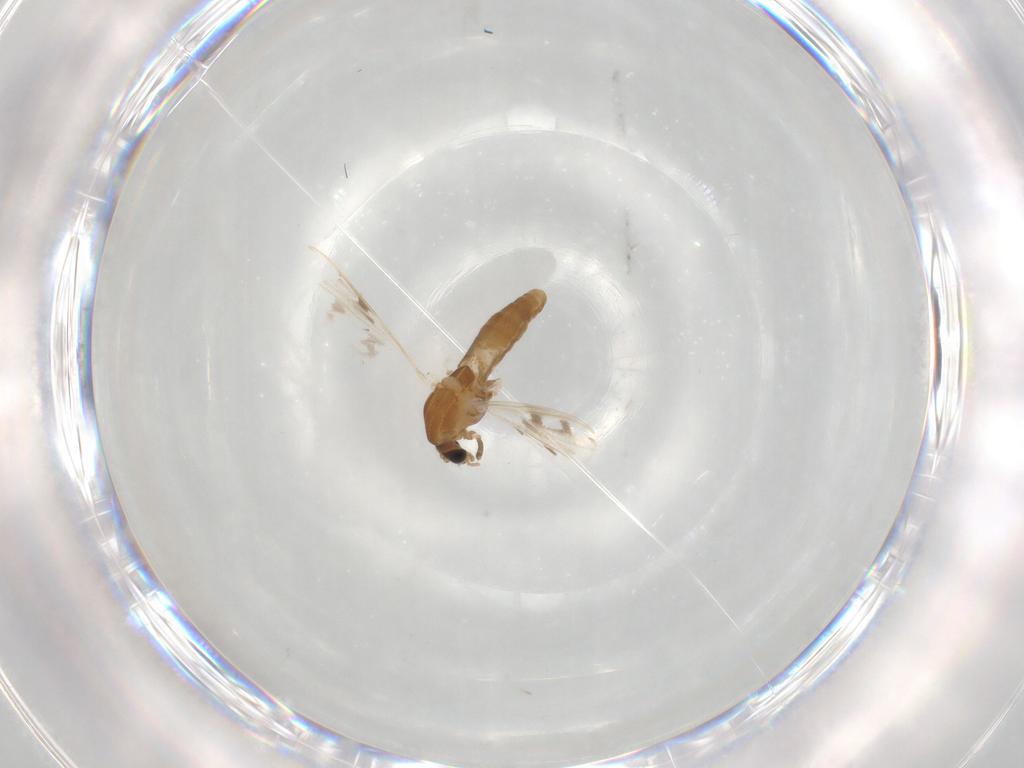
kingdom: Animalia
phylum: Arthropoda
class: Insecta
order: Diptera
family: Chironomidae
